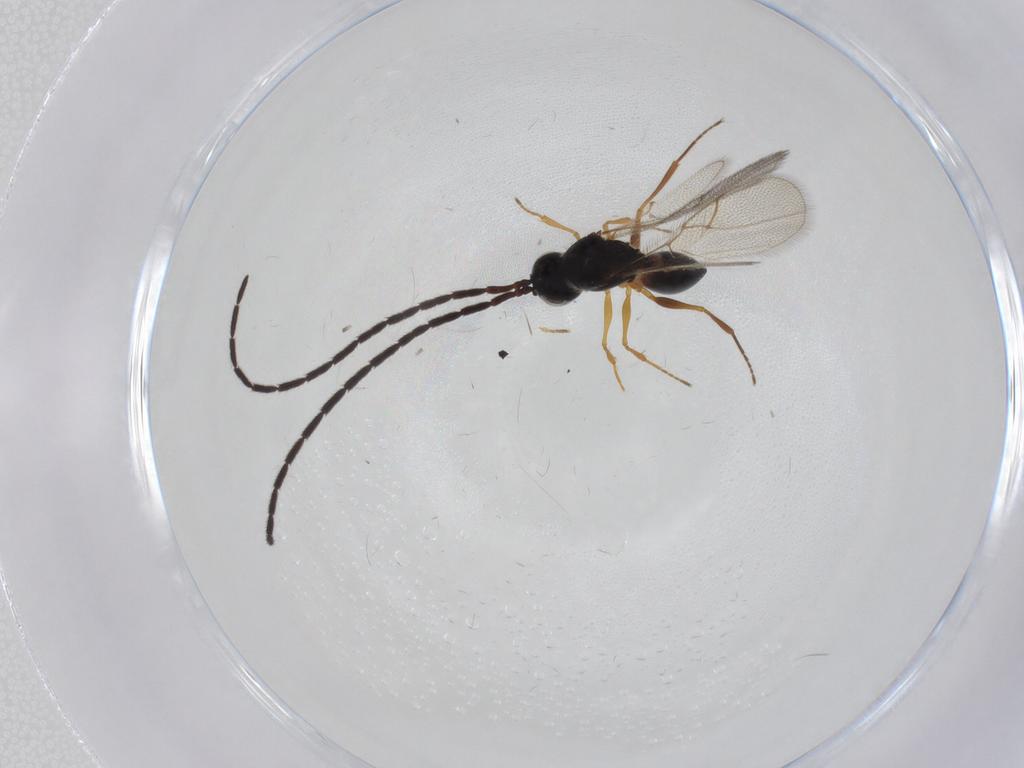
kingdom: Animalia
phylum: Arthropoda
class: Insecta
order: Hymenoptera
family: Figitidae
